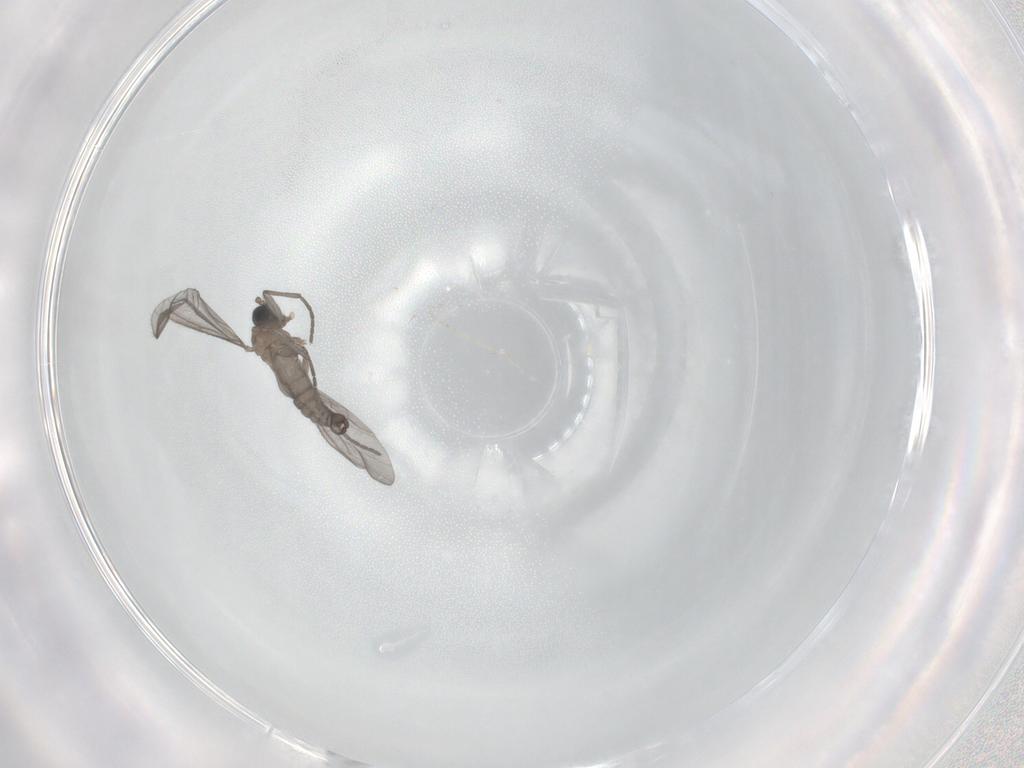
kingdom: Animalia
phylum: Arthropoda
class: Insecta
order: Diptera
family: Sciaridae
